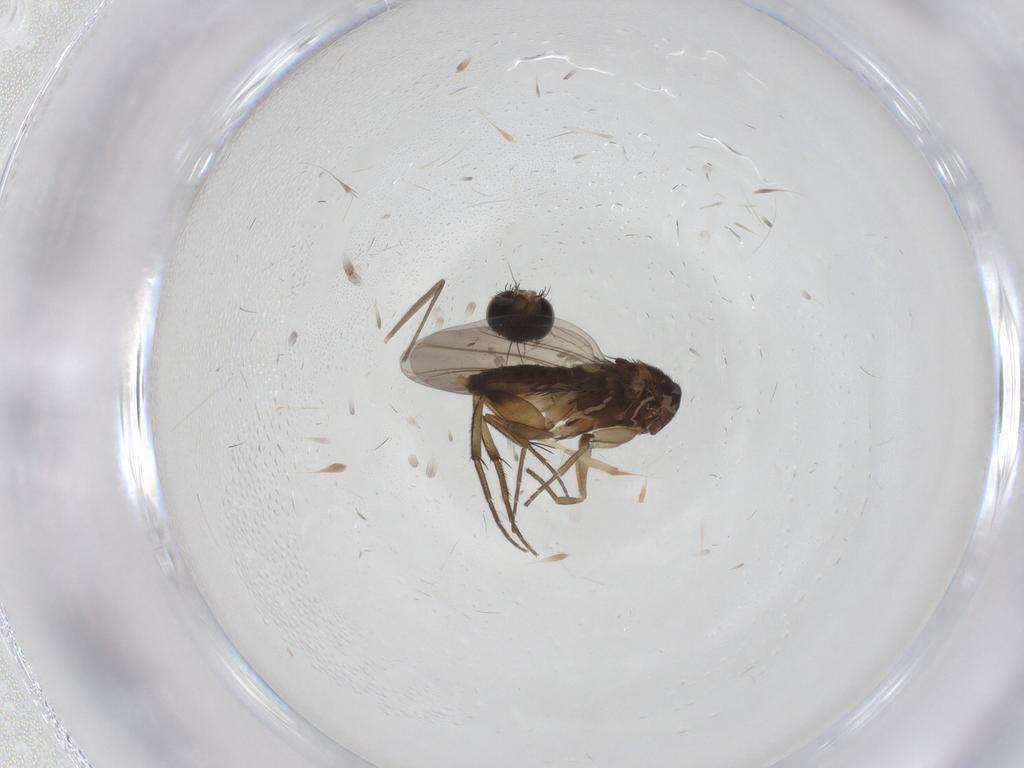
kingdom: Animalia
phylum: Arthropoda
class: Insecta
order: Diptera
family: Phoridae
